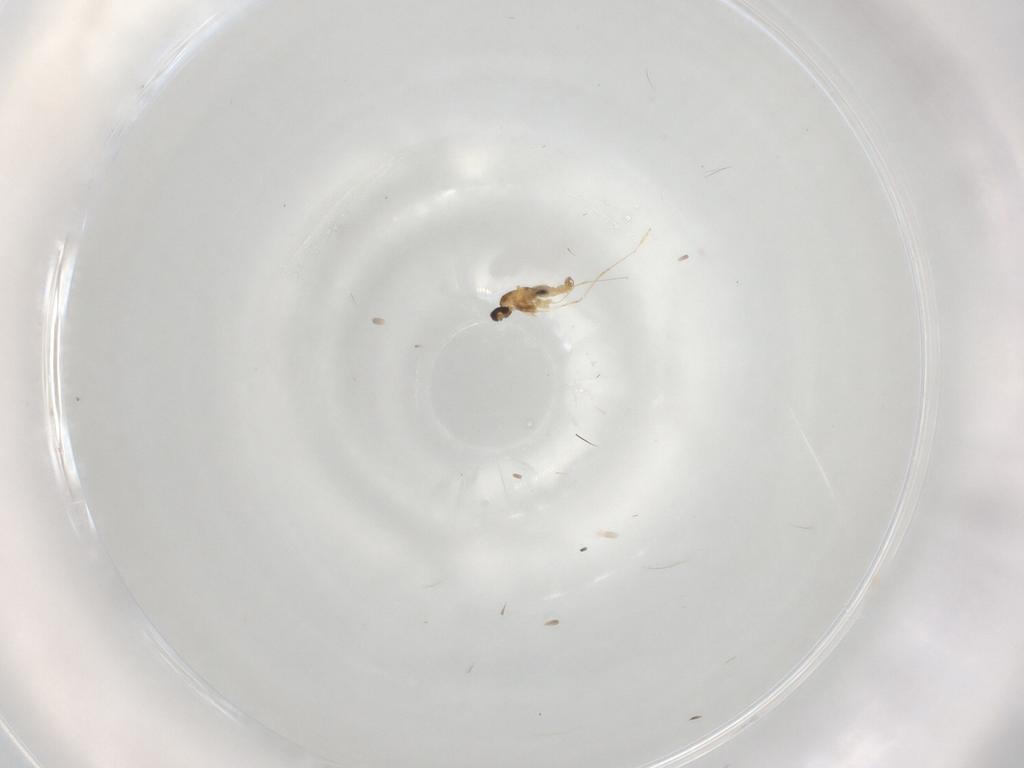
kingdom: Animalia
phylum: Arthropoda
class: Insecta
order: Diptera
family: Cecidomyiidae
